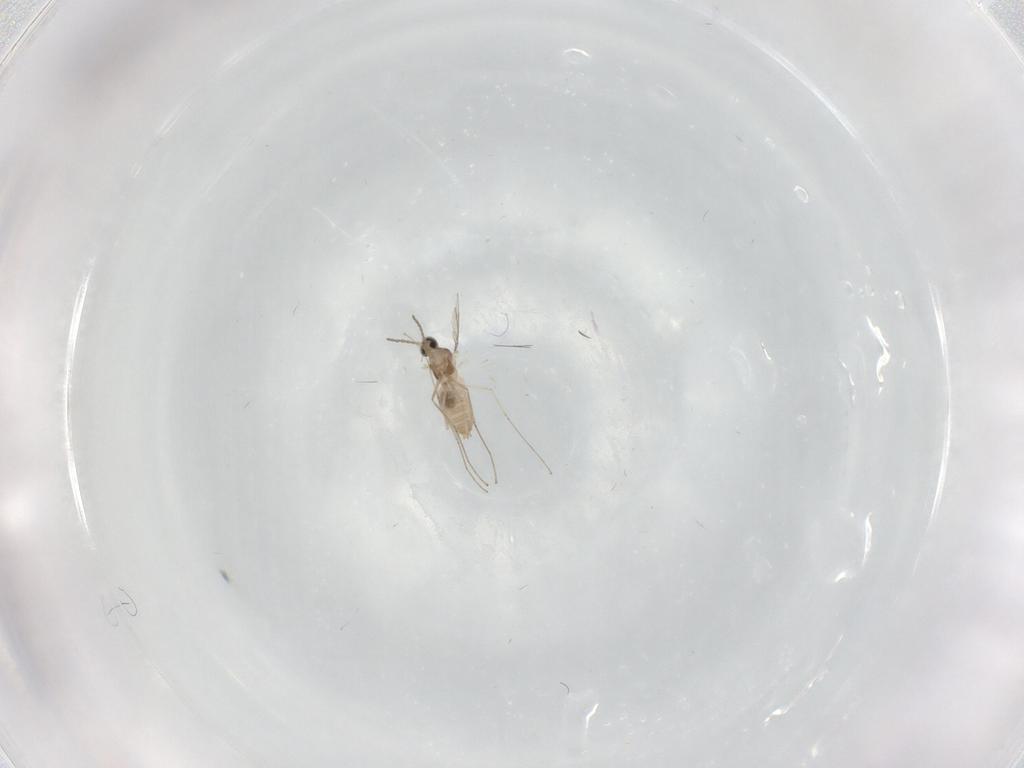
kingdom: Animalia
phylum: Arthropoda
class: Insecta
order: Diptera
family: Cecidomyiidae
